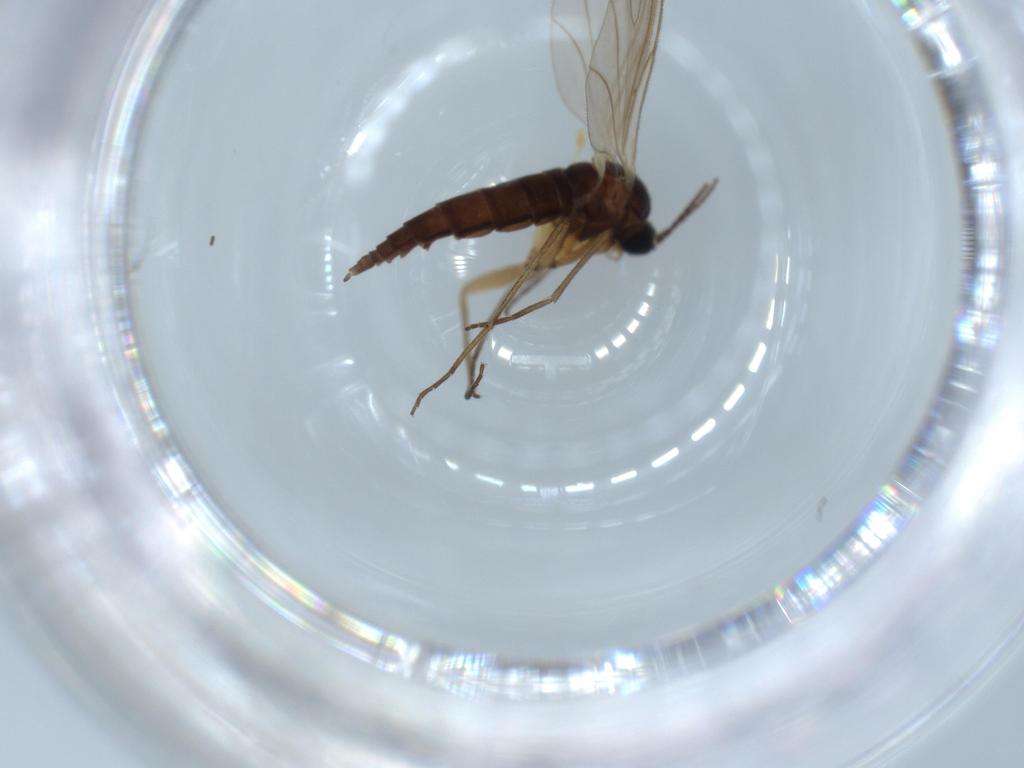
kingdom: Animalia
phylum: Arthropoda
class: Insecta
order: Diptera
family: Sciaridae
